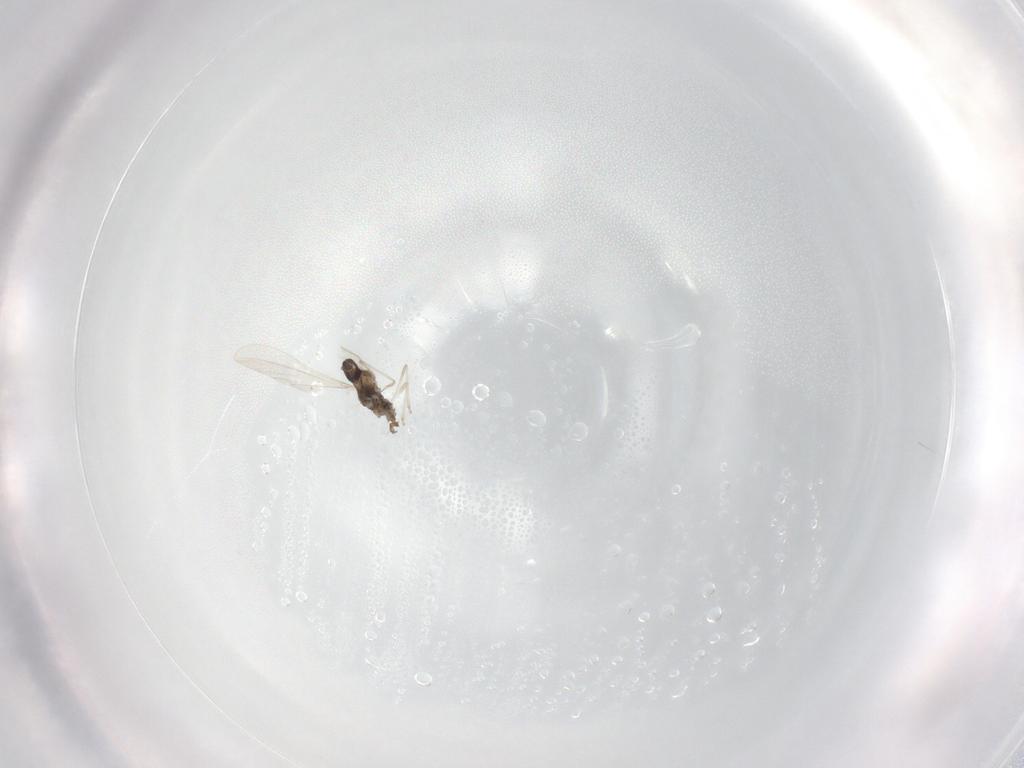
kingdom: Animalia
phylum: Arthropoda
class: Insecta
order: Diptera
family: Cecidomyiidae
